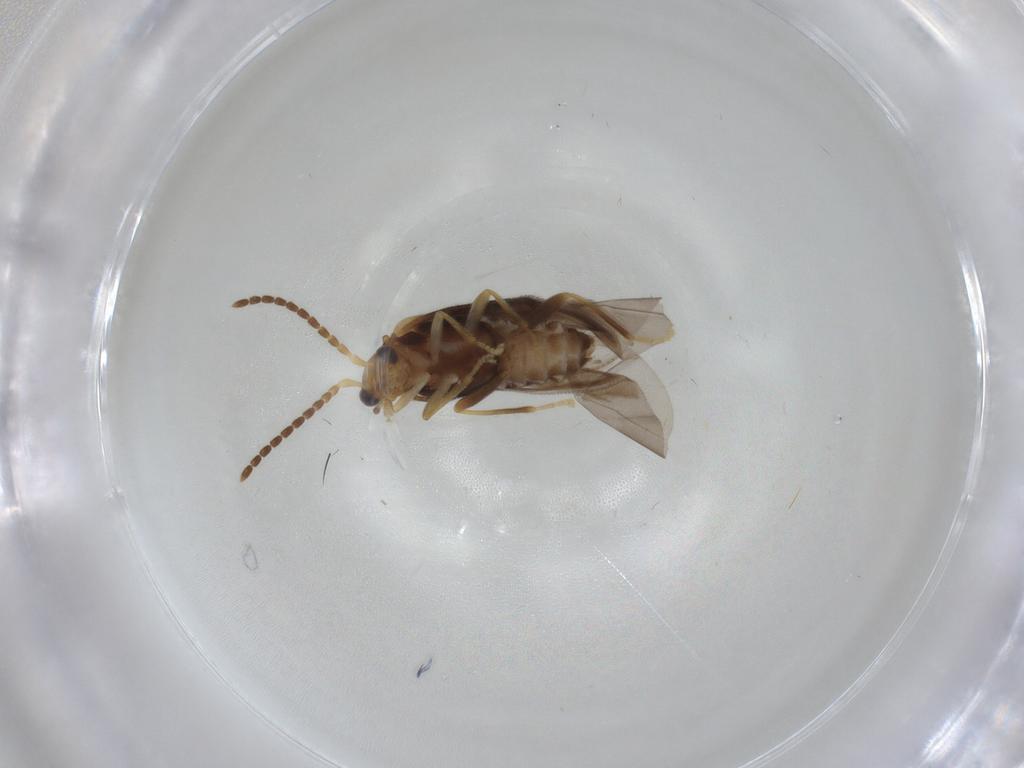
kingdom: Animalia
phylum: Arthropoda
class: Insecta
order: Coleoptera
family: Cantharidae
